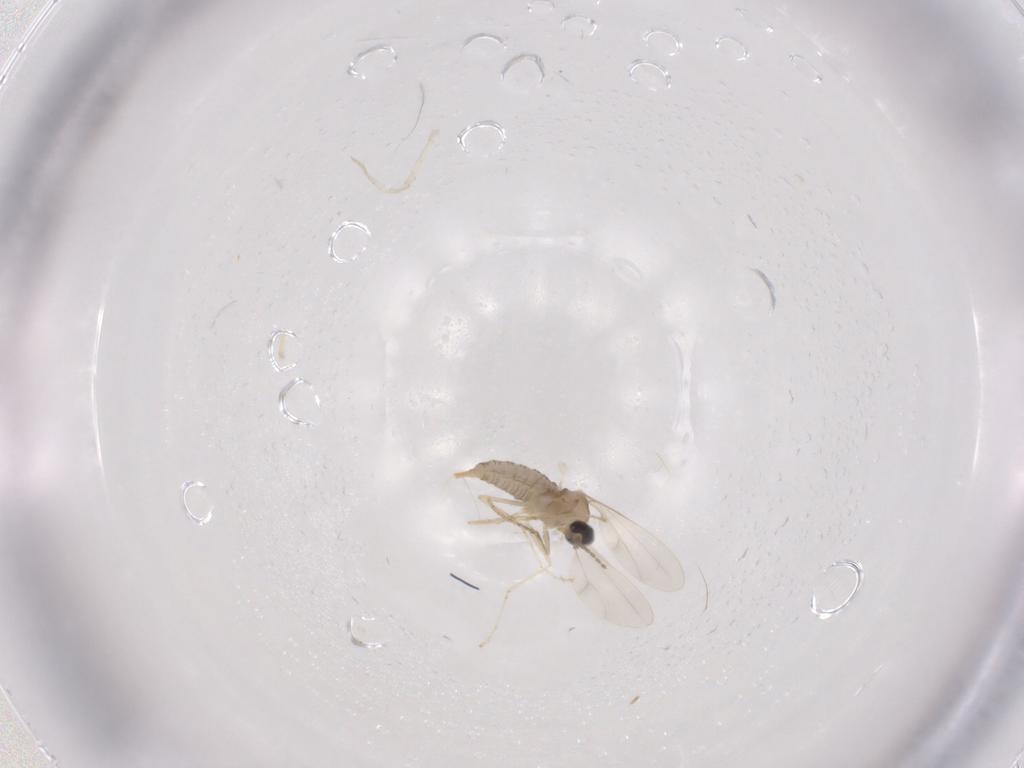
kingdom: Animalia
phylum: Arthropoda
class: Insecta
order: Diptera
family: Cecidomyiidae
